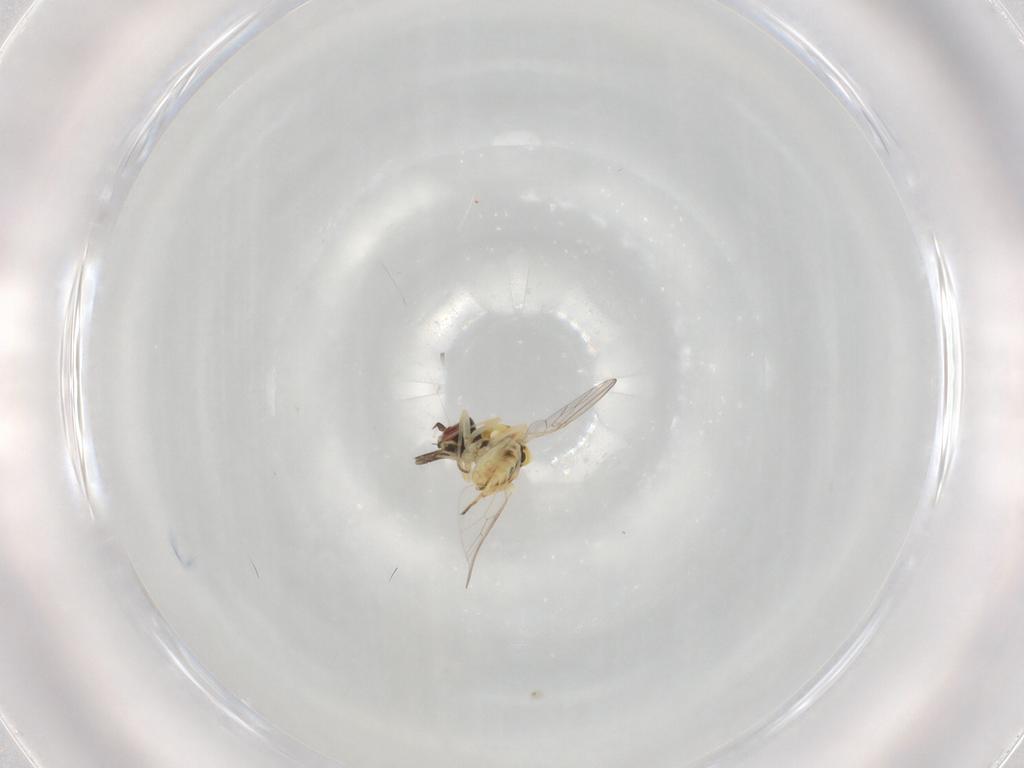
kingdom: Animalia
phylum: Arthropoda
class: Insecta
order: Diptera
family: Bombyliidae
